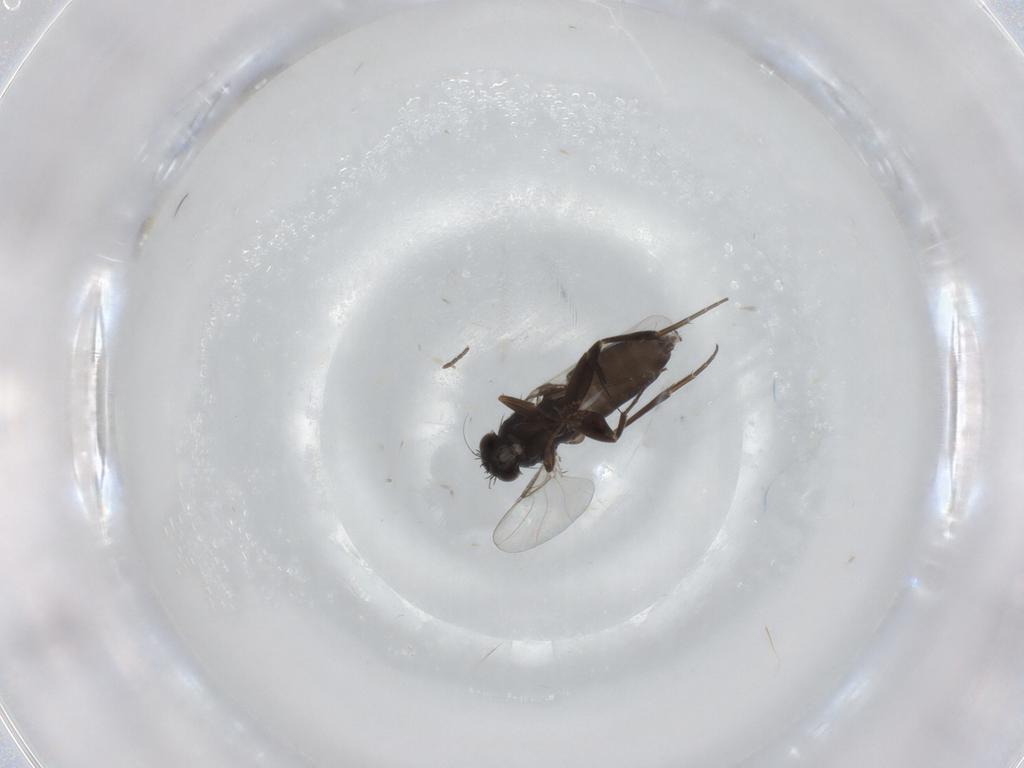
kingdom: Animalia
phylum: Arthropoda
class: Insecta
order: Diptera
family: Phoridae
